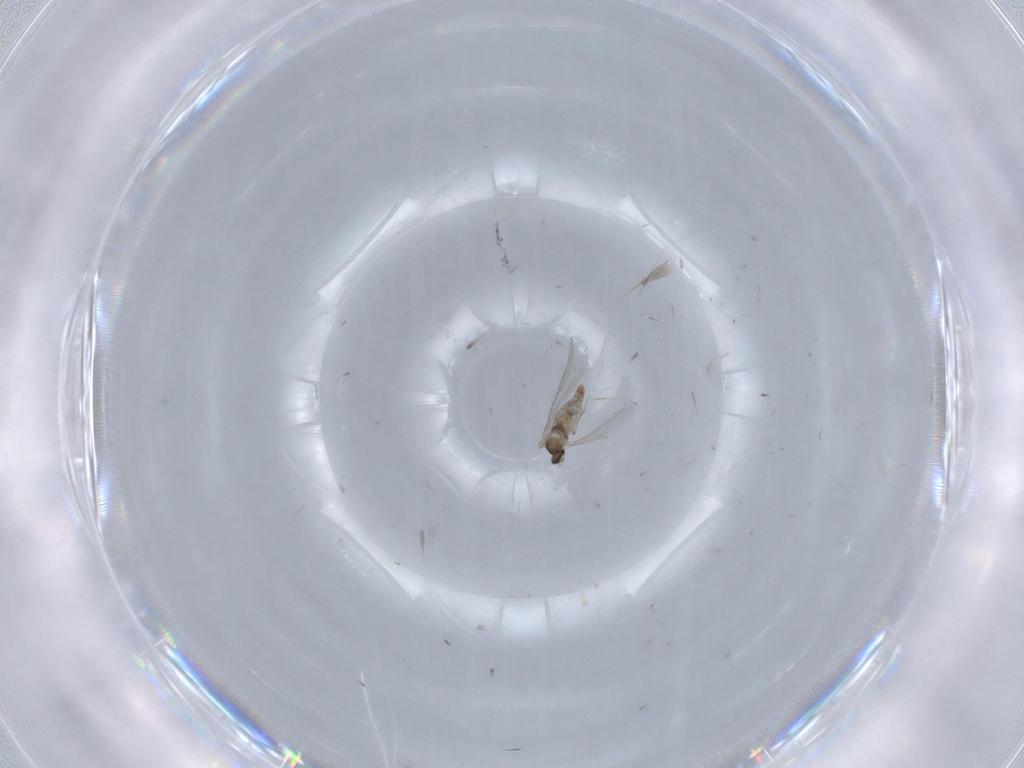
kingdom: Animalia
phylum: Arthropoda
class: Insecta
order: Diptera
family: Cecidomyiidae
